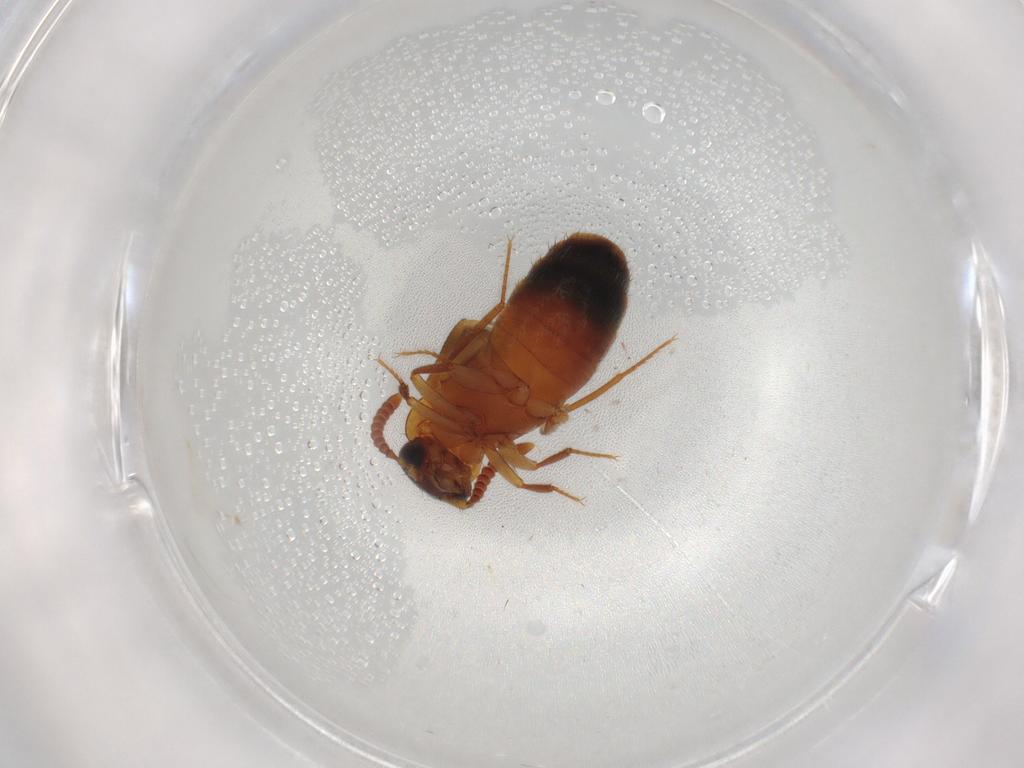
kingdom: Animalia
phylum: Arthropoda
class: Insecta
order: Coleoptera
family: Staphylinidae
